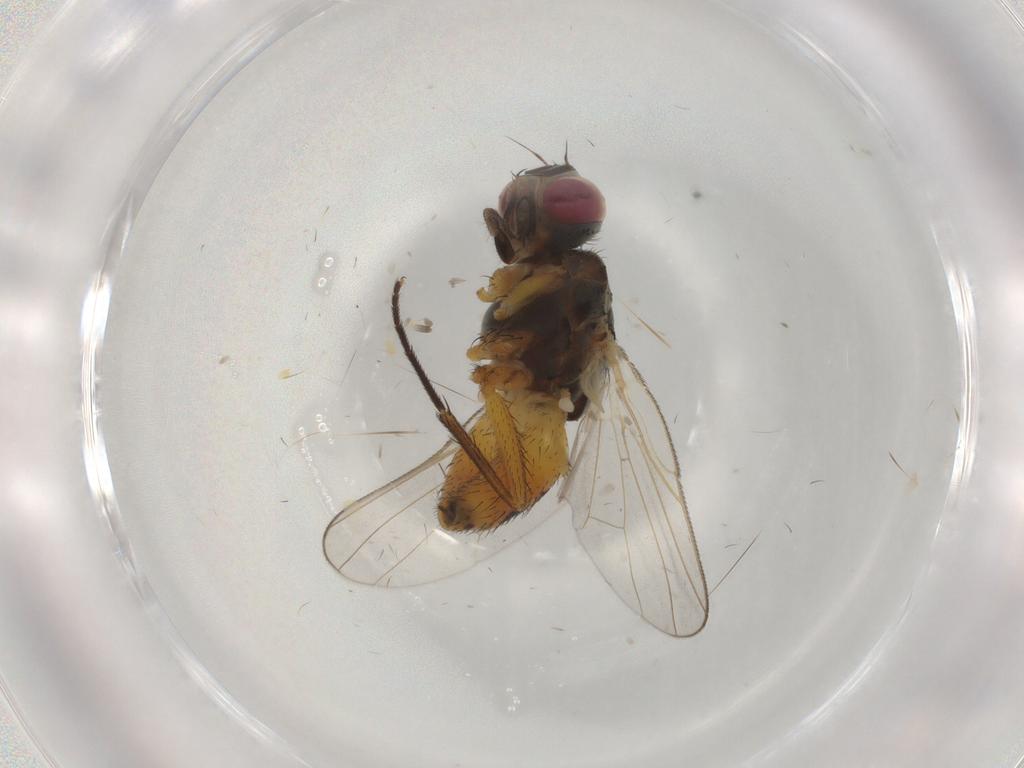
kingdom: Animalia
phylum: Arthropoda
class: Insecta
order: Diptera
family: Muscidae
